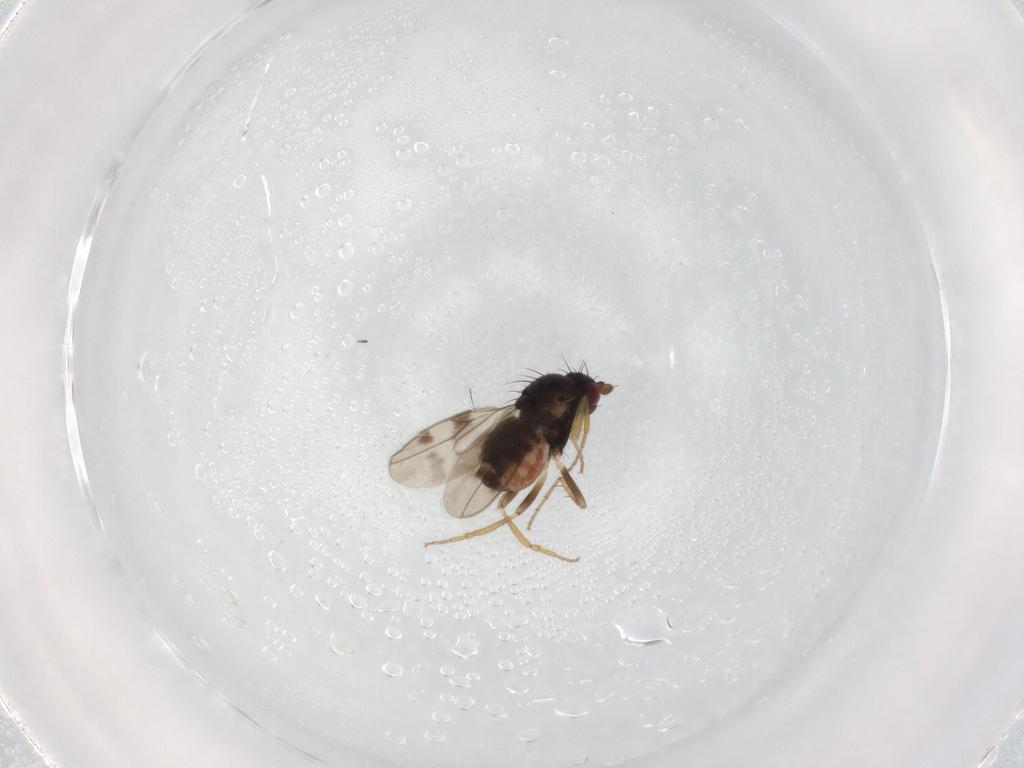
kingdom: Animalia
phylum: Arthropoda
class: Insecta
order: Diptera
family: Sphaeroceridae
